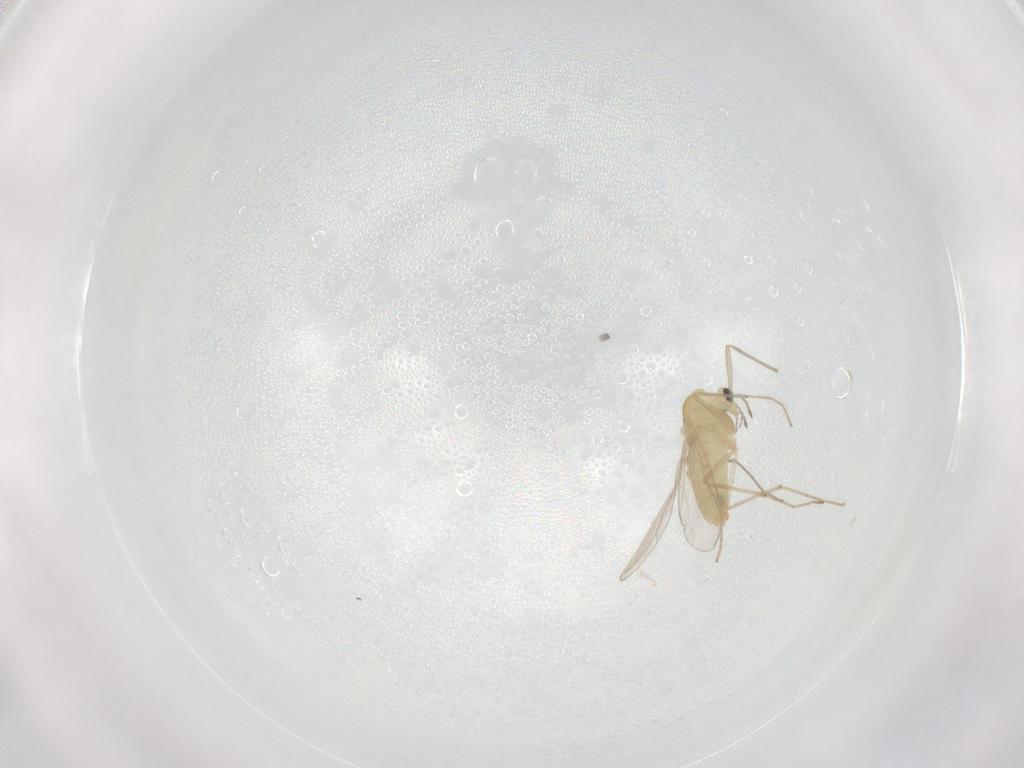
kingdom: Animalia
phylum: Arthropoda
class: Insecta
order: Diptera
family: Chironomidae
